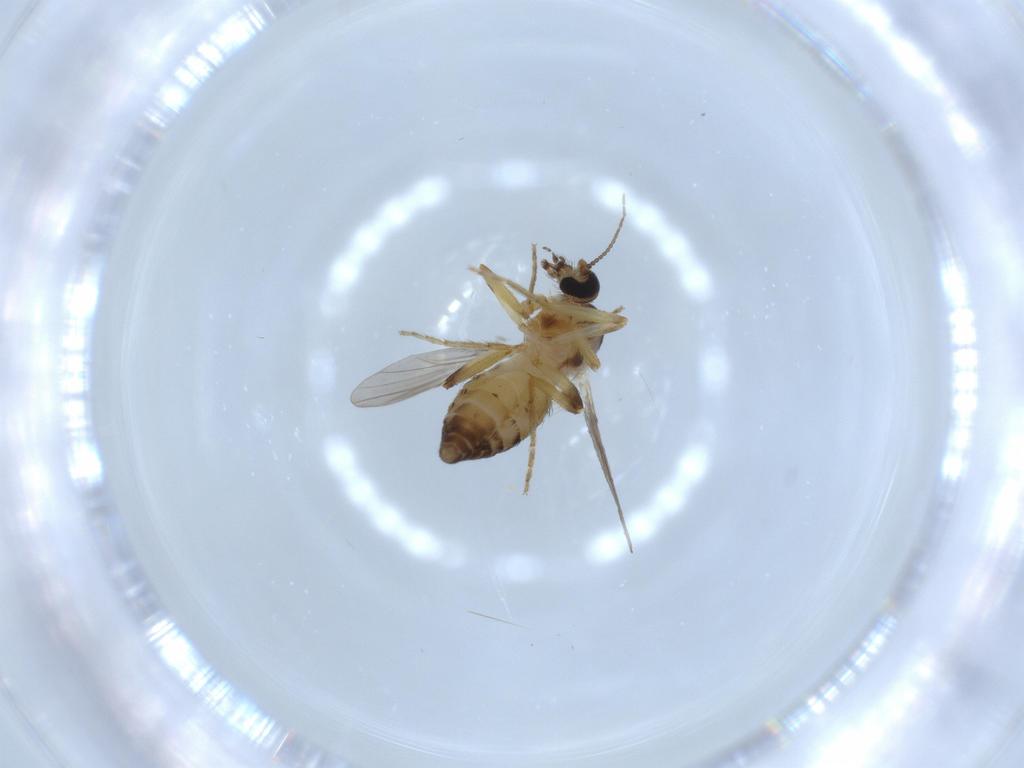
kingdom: Animalia
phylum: Arthropoda
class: Insecta
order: Diptera
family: Ceratopogonidae
